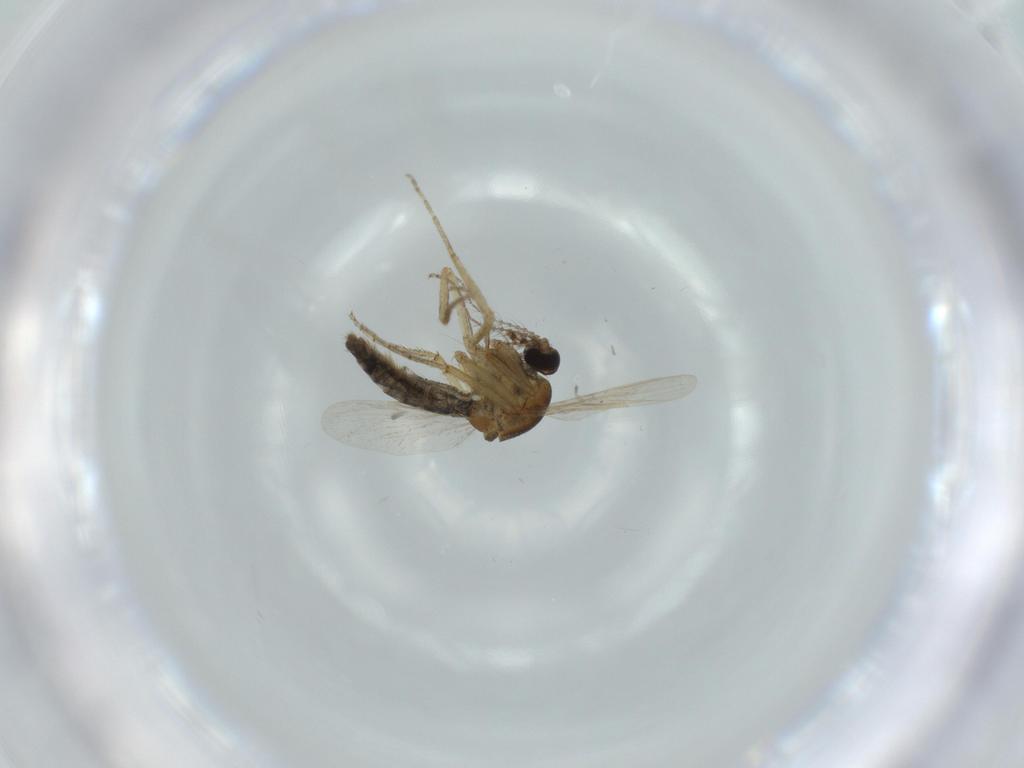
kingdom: Animalia
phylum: Arthropoda
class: Insecta
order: Diptera
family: Ceratopogonidae
